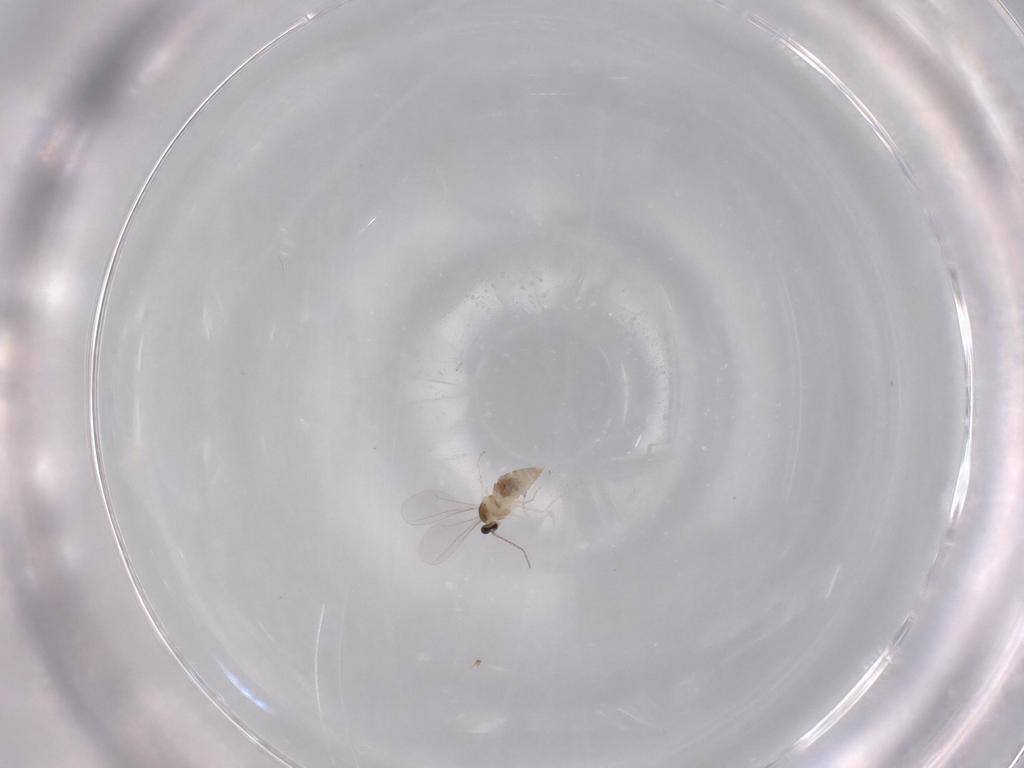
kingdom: Animalia
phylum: Arthropoda
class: Insecta
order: Diptera
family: Cecidomyiidae
